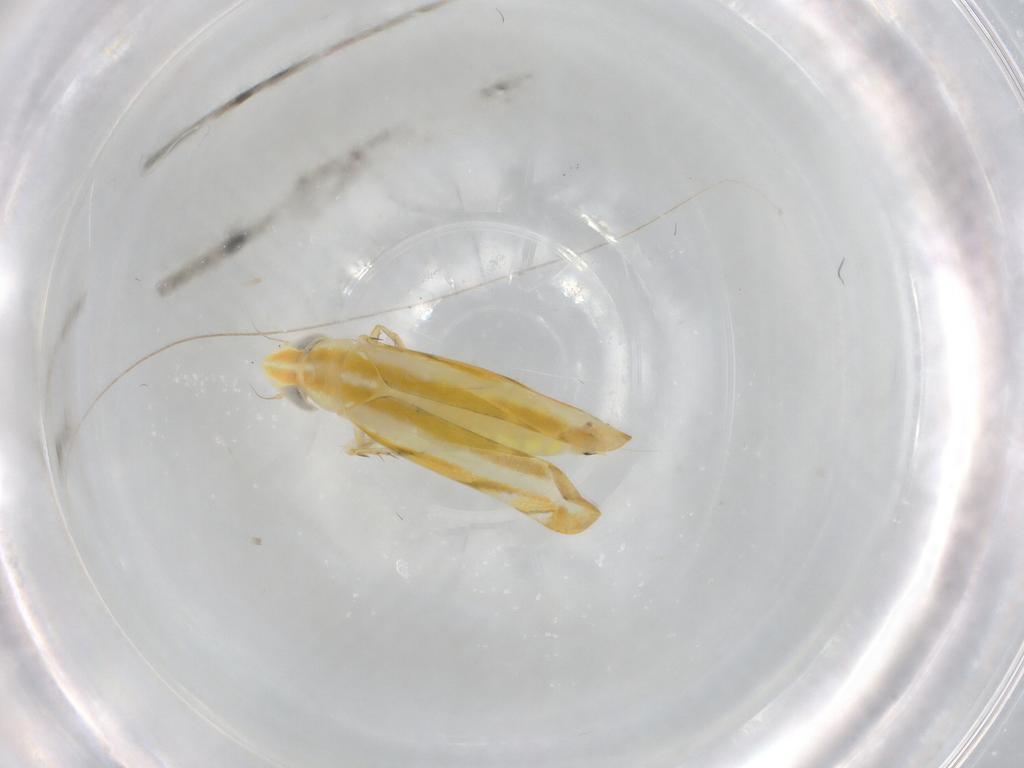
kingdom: Animalia
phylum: Arthropoda
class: Insecta
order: Hemiptera
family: Cicadellidae
